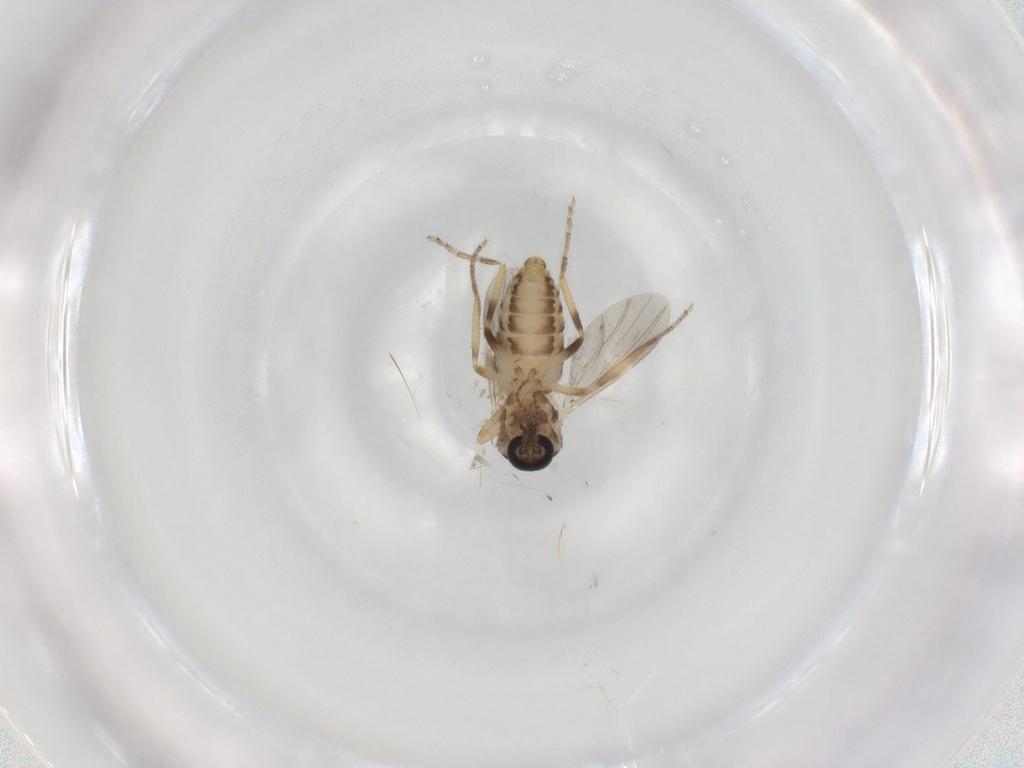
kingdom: Animalia
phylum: Arthropoda
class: Insecta
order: Diptera
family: Ceratopogonidae
